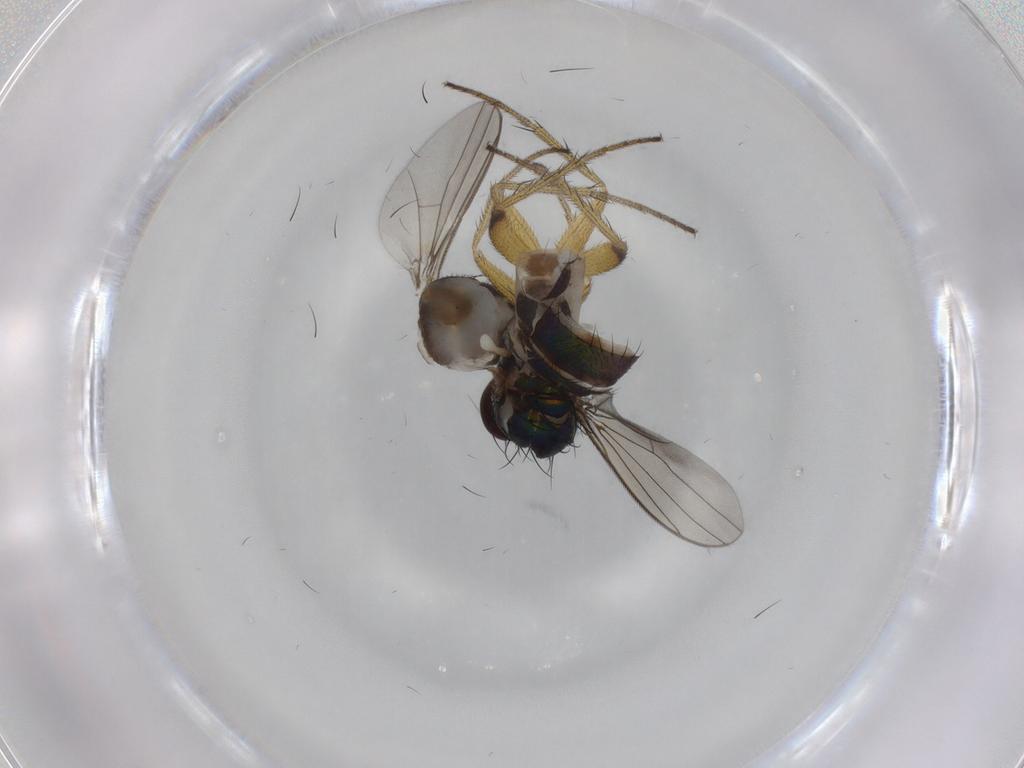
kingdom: Animalia
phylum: Arthropoda
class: Insecta
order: Diptera
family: Dolichopodidae
